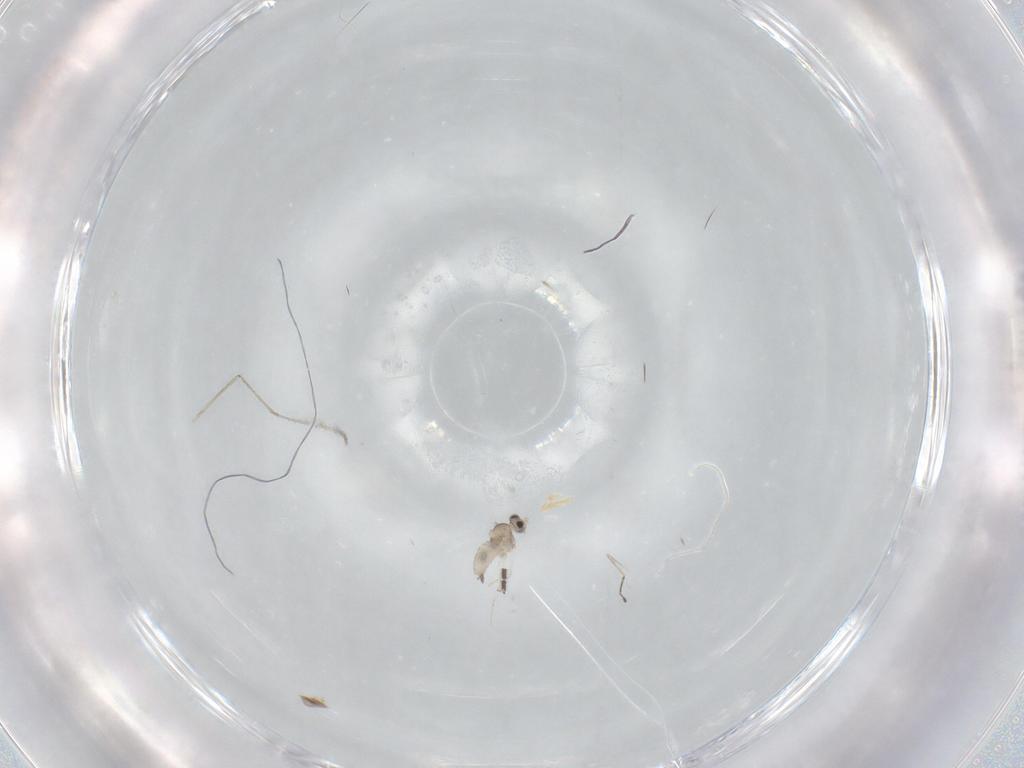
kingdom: Animalia
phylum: Arthropoda
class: Insecta
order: Diptera
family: Cecidomyiidae
